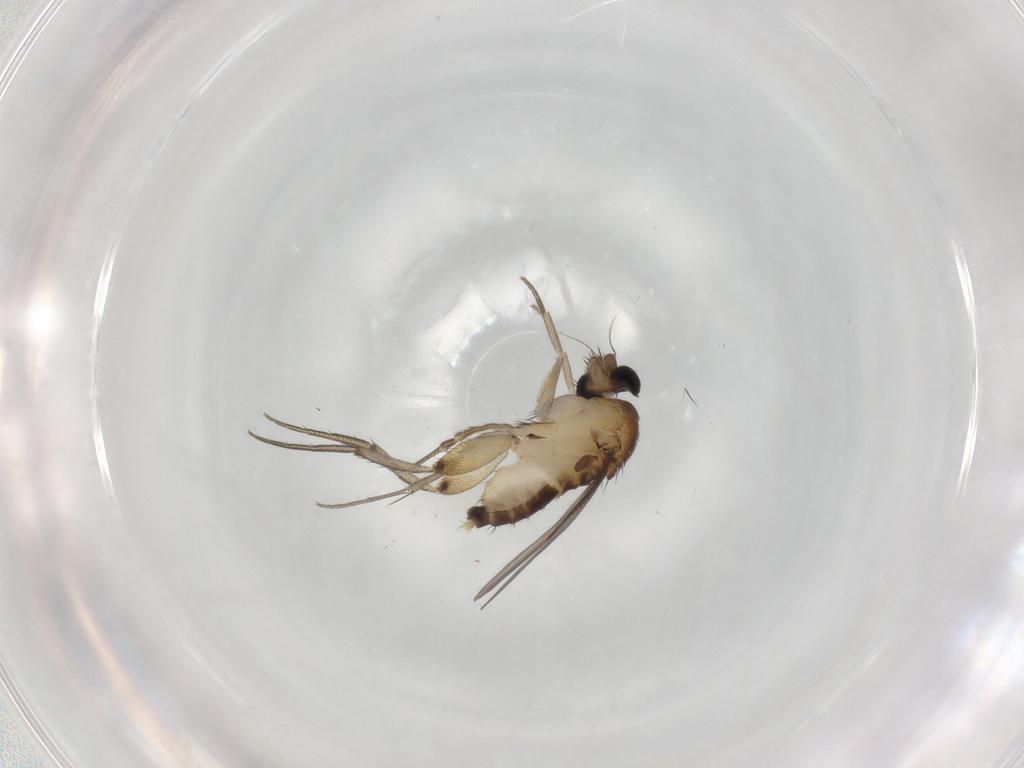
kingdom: Animalia
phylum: Arthropoda
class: Insecta
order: Diptera
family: Phoridae
